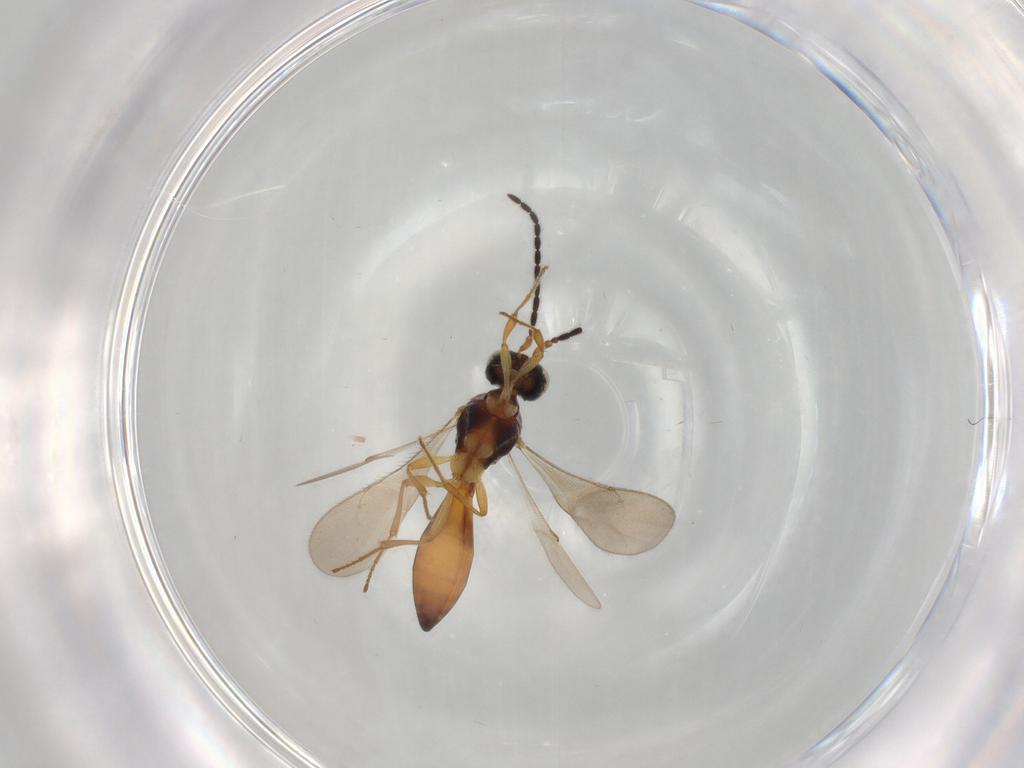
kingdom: Animalia
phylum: Arthropoda
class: Insecta
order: Hymenoptera
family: Scelionidae
